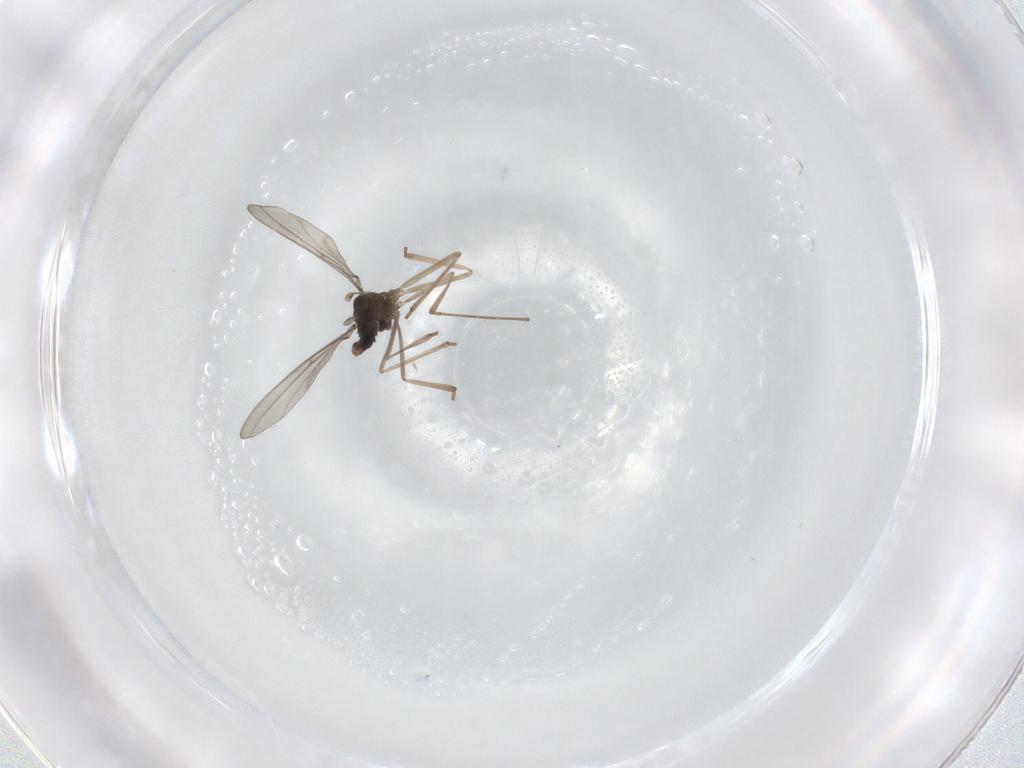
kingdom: Animalia
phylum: Arthropoda
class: Insecta
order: Diptera
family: Cecidomyiidae
